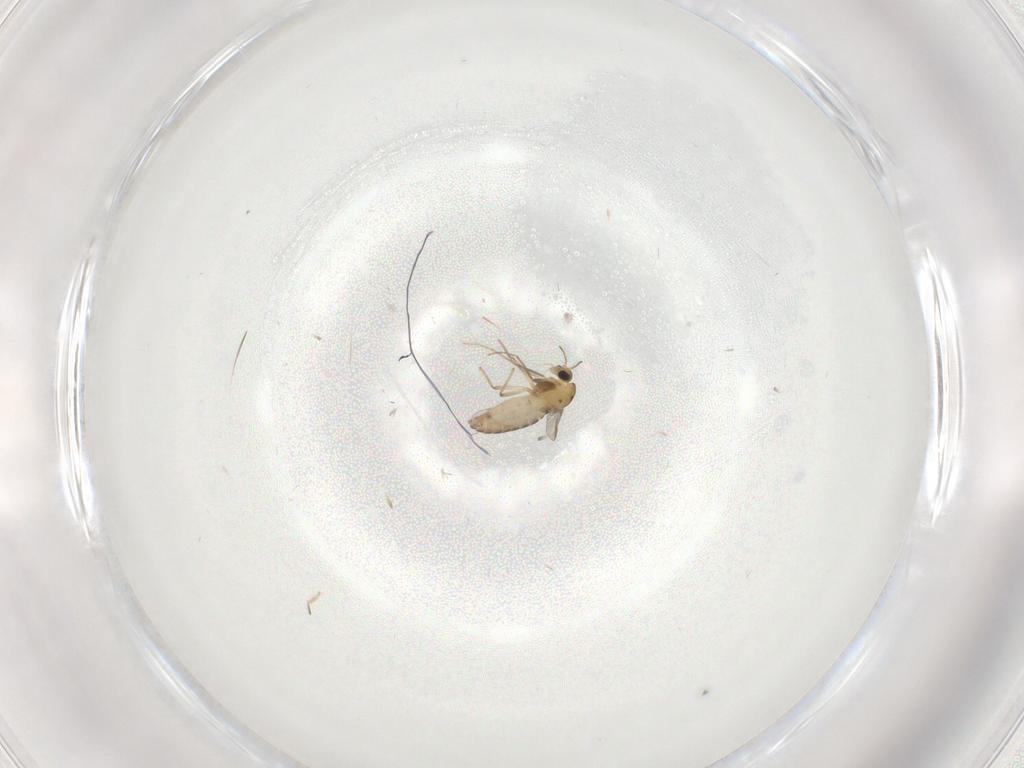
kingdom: Animalia
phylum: Arthropoda
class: Insecta
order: Diptera
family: Chironomidae
